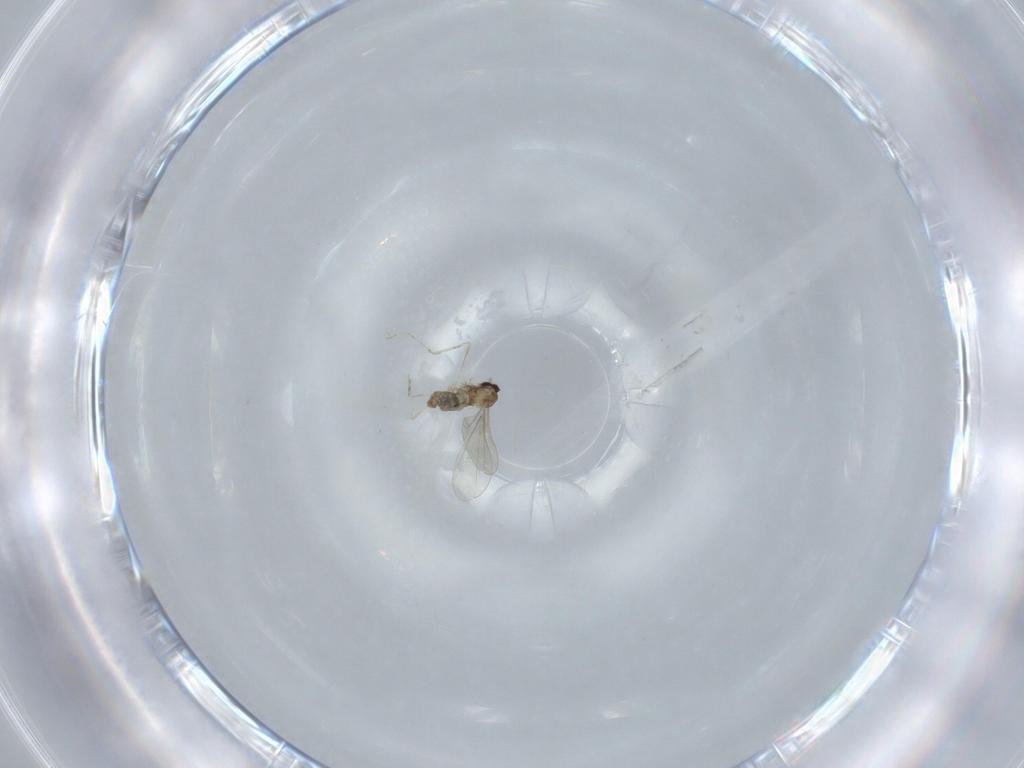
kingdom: Animalia
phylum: Arthropoda
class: Insecta
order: Diptera
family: Cecidomyiidae
